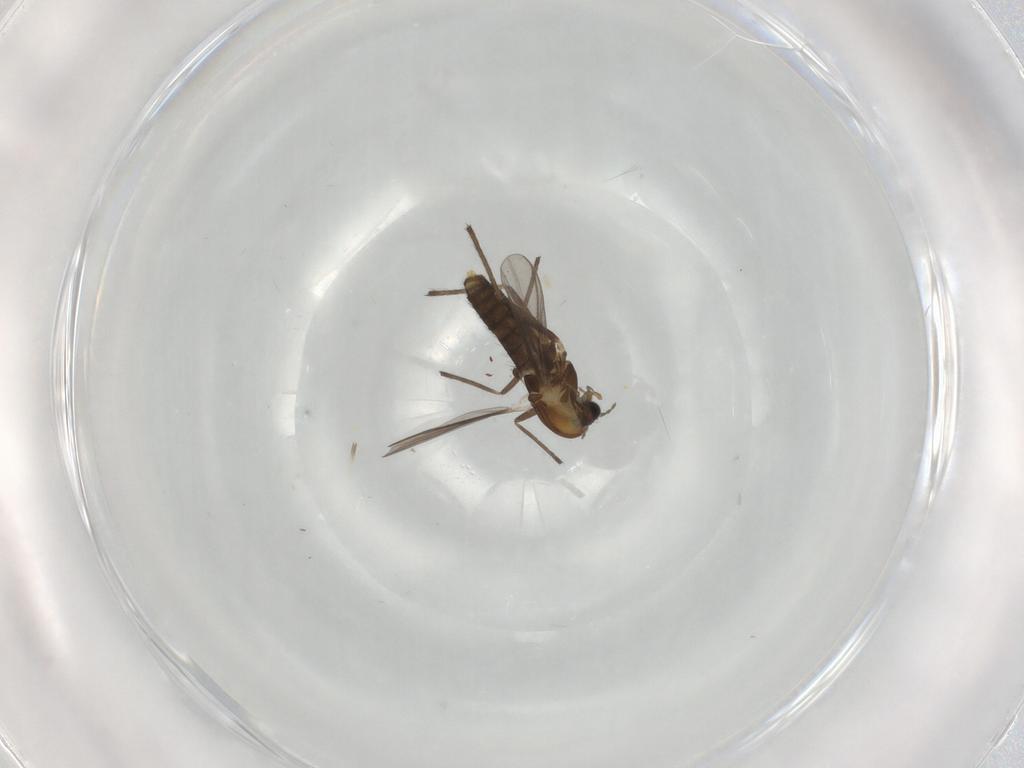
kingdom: Animalia
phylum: Arthropoda
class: Insecta
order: Diptera
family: Chironomidae
